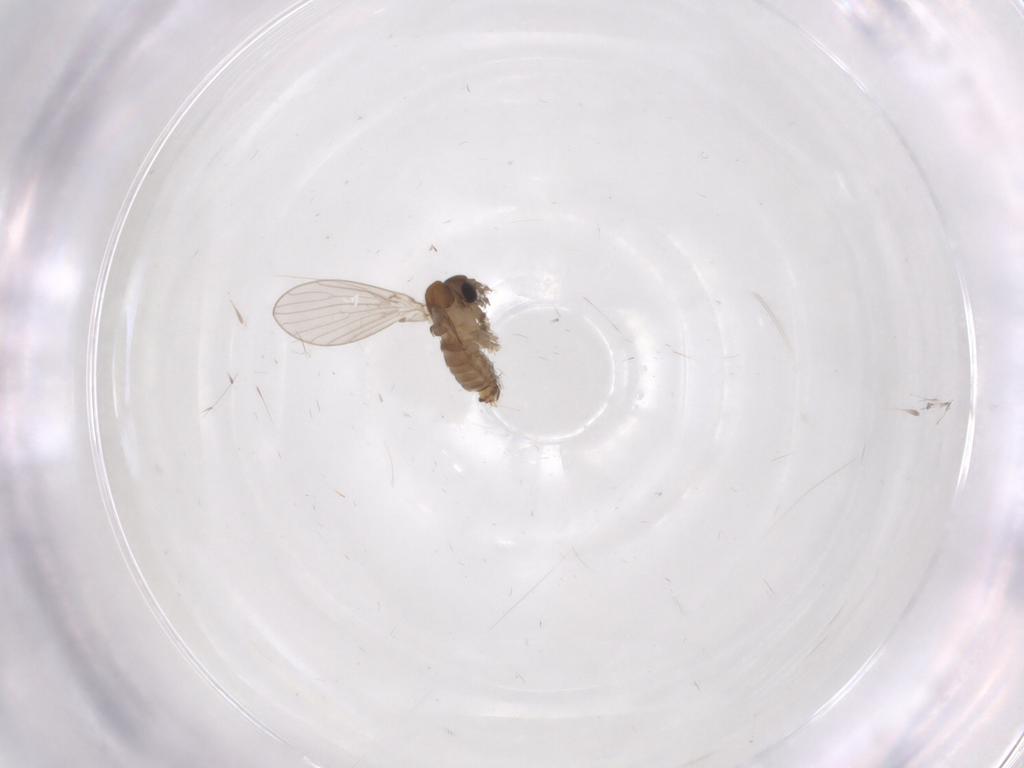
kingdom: Animalia
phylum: Arthropoda
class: Insecta
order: Diptera
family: Psychodidae
